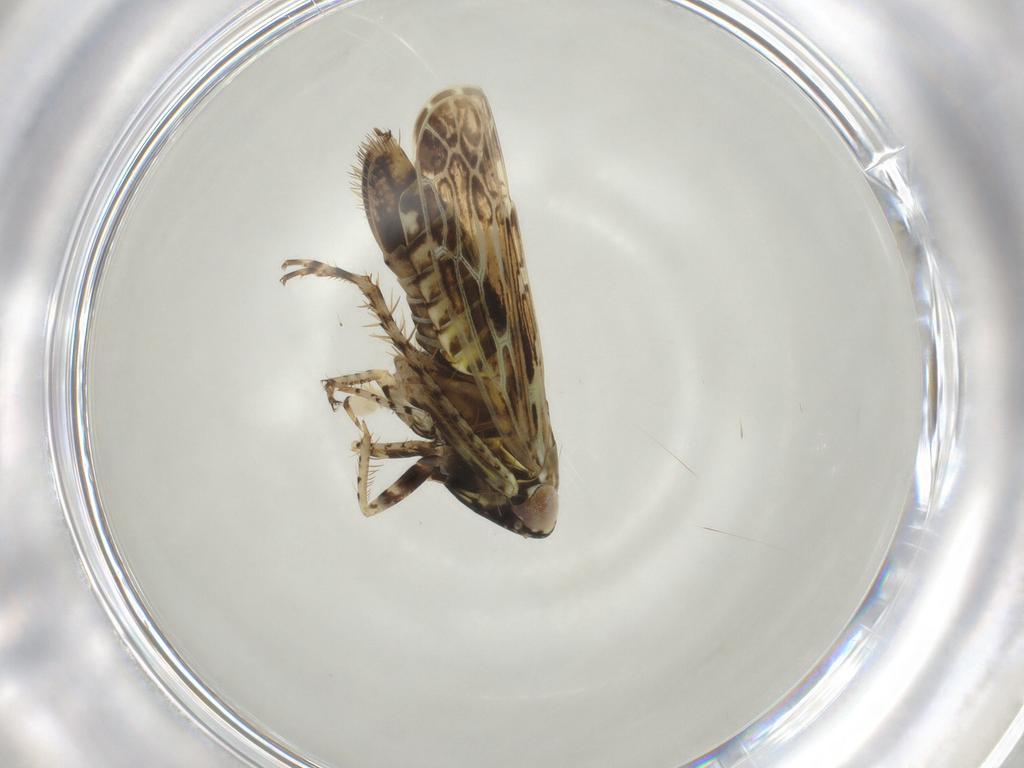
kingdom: Animalia
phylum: Arthropoda
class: Insecta
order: Hemiptera
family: Cicadellidae
